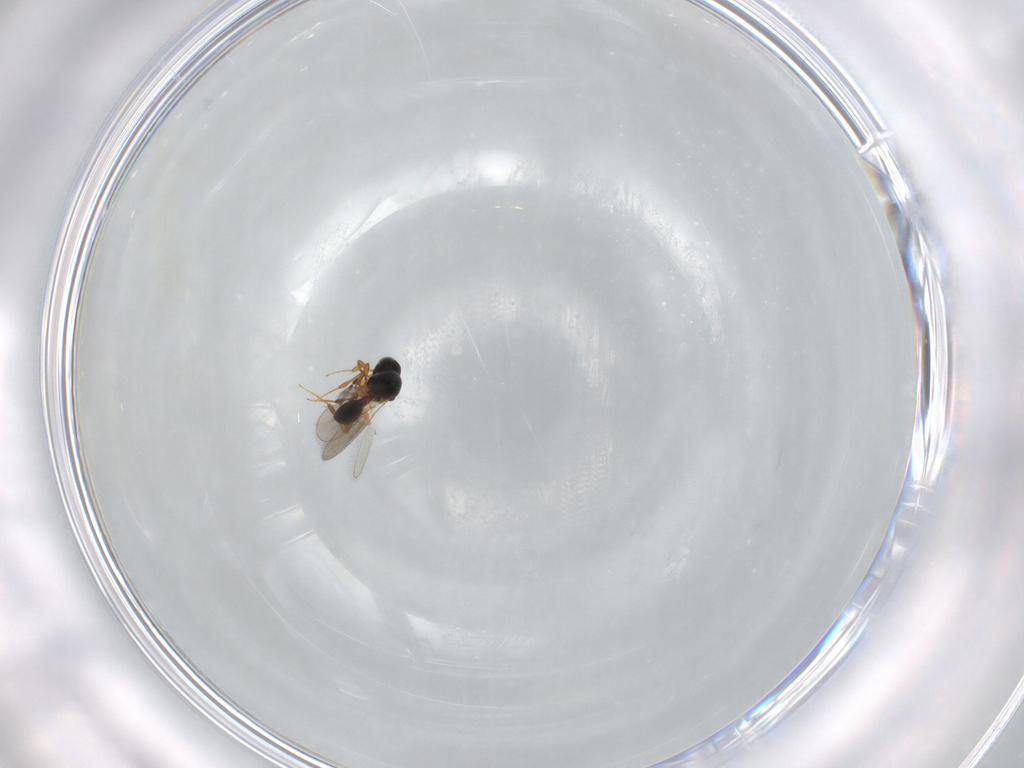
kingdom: Animalia
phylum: Arthropoda
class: Insecta
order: Hymenoptera
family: Platygastridae
